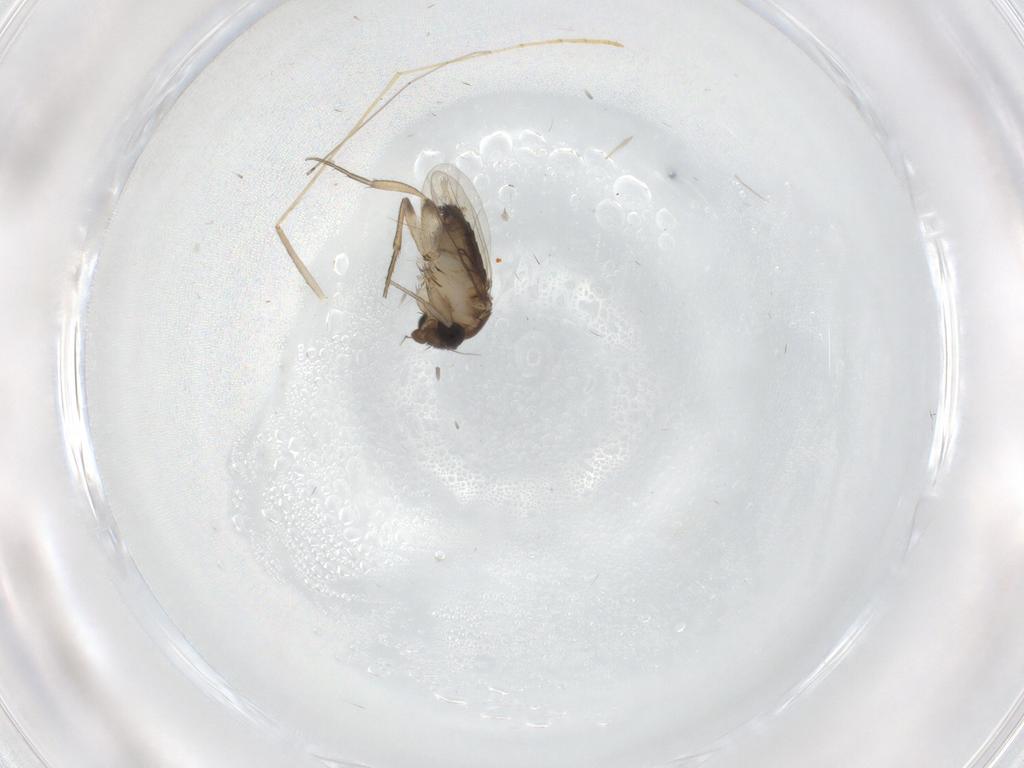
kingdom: Animalia
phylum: Arthropoda
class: Insecta
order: Diptera
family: Phoridae
